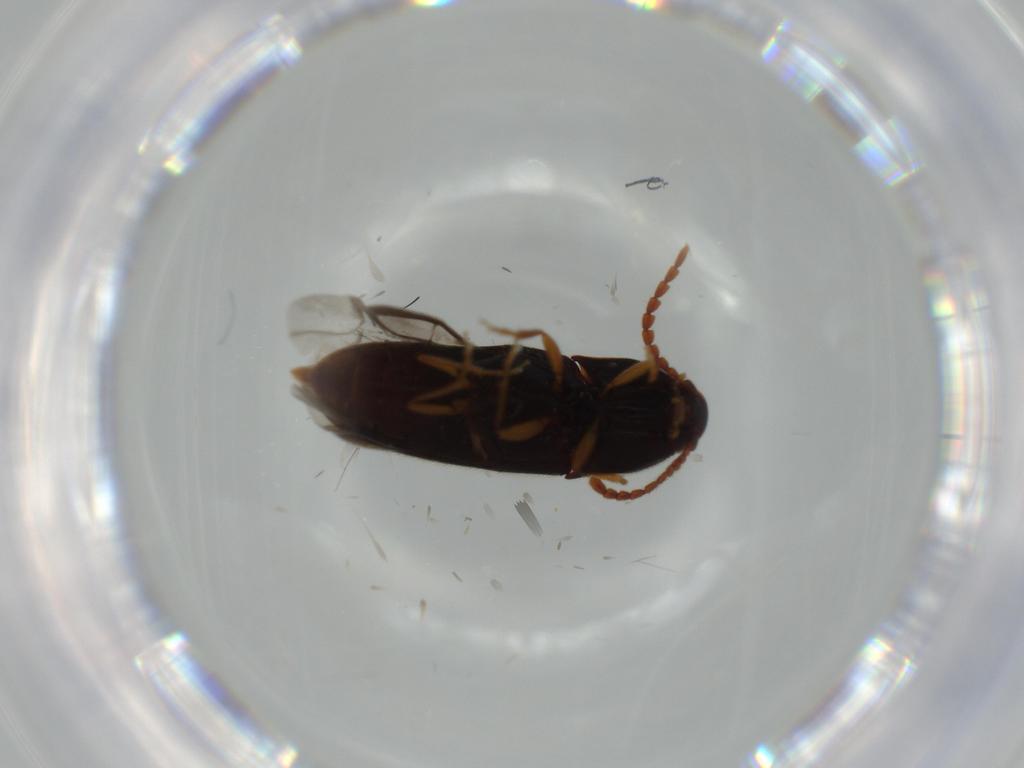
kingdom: Animalia
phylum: Arthropoda
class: Insecta
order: Coleoptera
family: Elateridae
